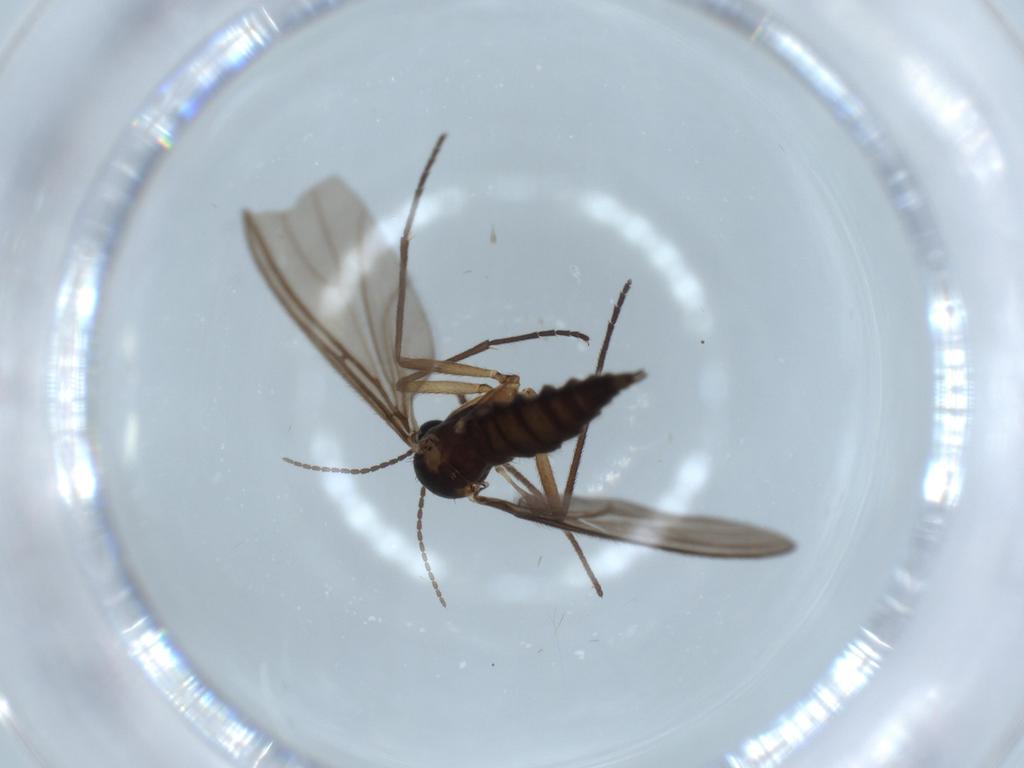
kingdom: Animalia
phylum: Arthropoda
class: Insecta
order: Diptera
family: Sciaridae
